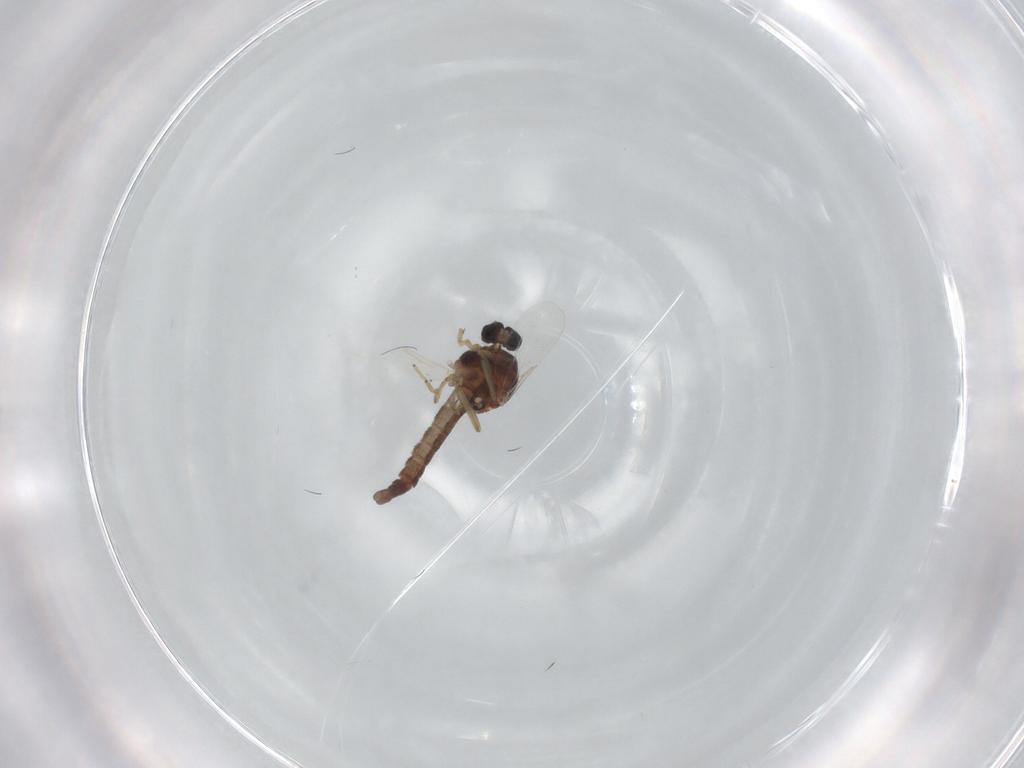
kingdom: Animalia
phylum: Arthropoda
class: Insecta
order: Diptera
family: Ceratopogonidae
